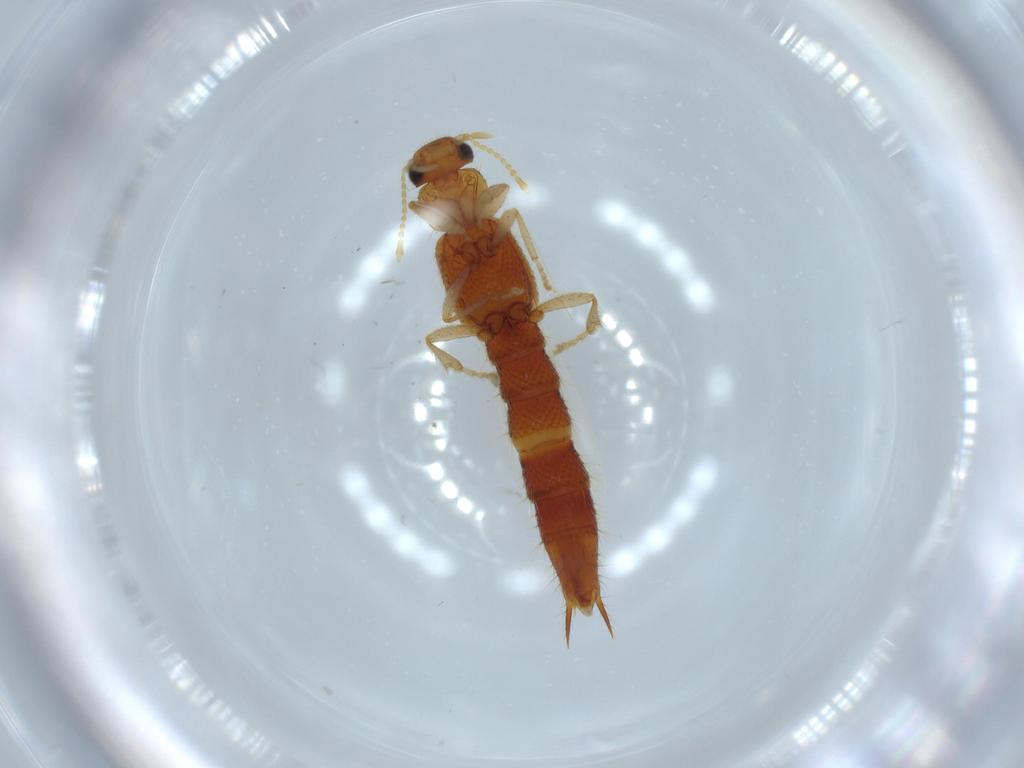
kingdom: Animalia
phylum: Arthropoda
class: Insecta
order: Coleoptera
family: Staphylinidae
